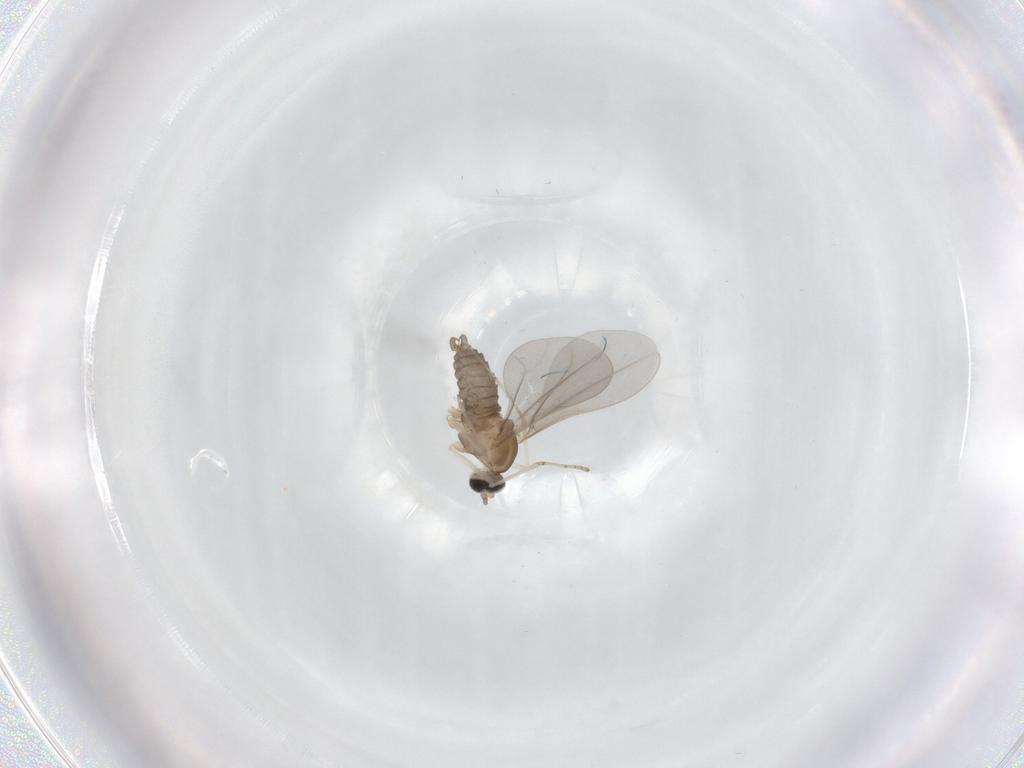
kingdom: Animalia
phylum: Arthropoda
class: Insecta
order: Diptera
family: Cecidomyiidae
